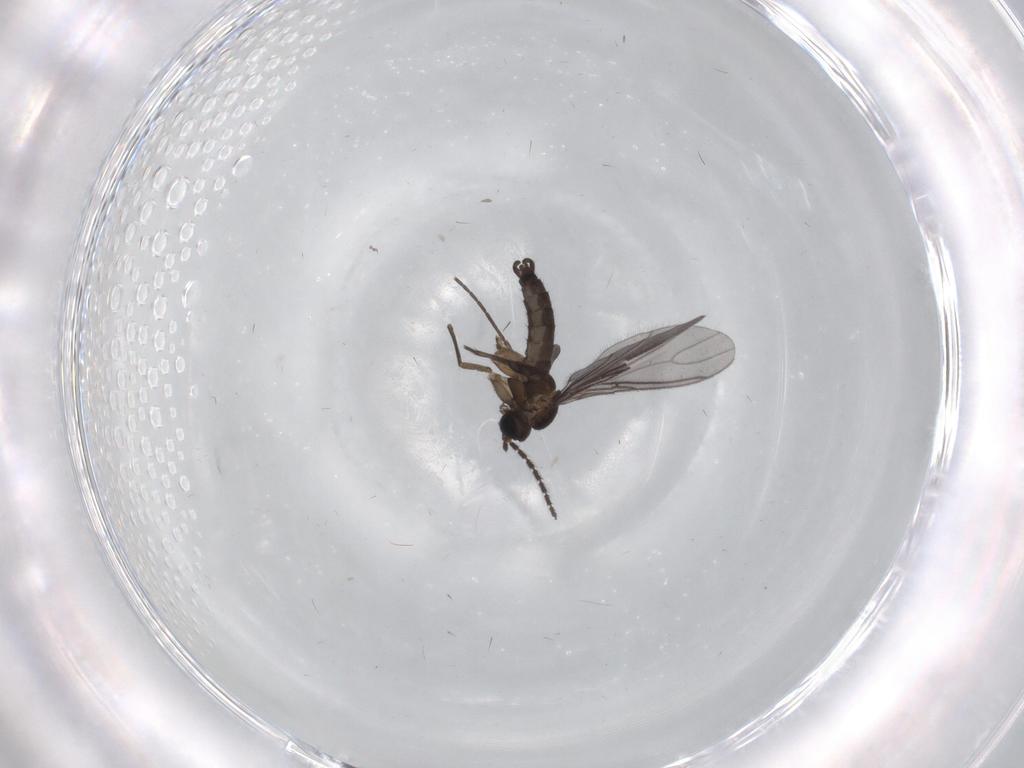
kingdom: Animalia
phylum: Arthropoda
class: Insecta
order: Diptera
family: Sciaridae
